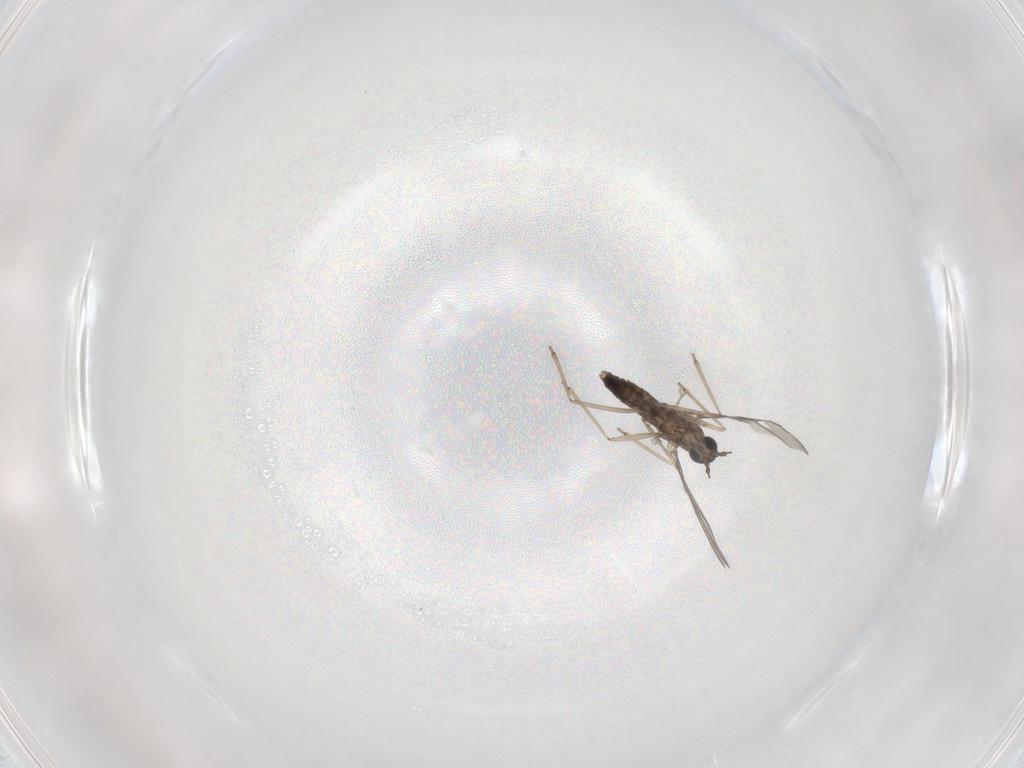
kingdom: Animalia
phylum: Arthropoda
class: Insecta
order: Diptera
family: Cecidomyiidae
